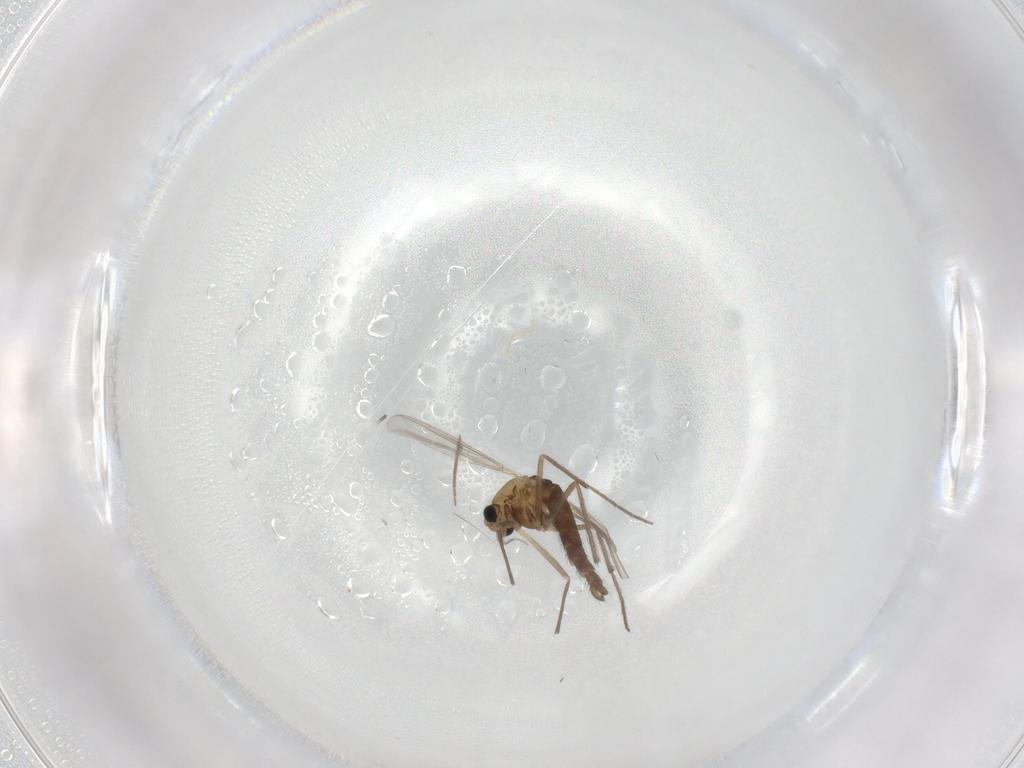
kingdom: Animalia
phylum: Arthropoda
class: Insecta
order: Diptera
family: Chironomidae
